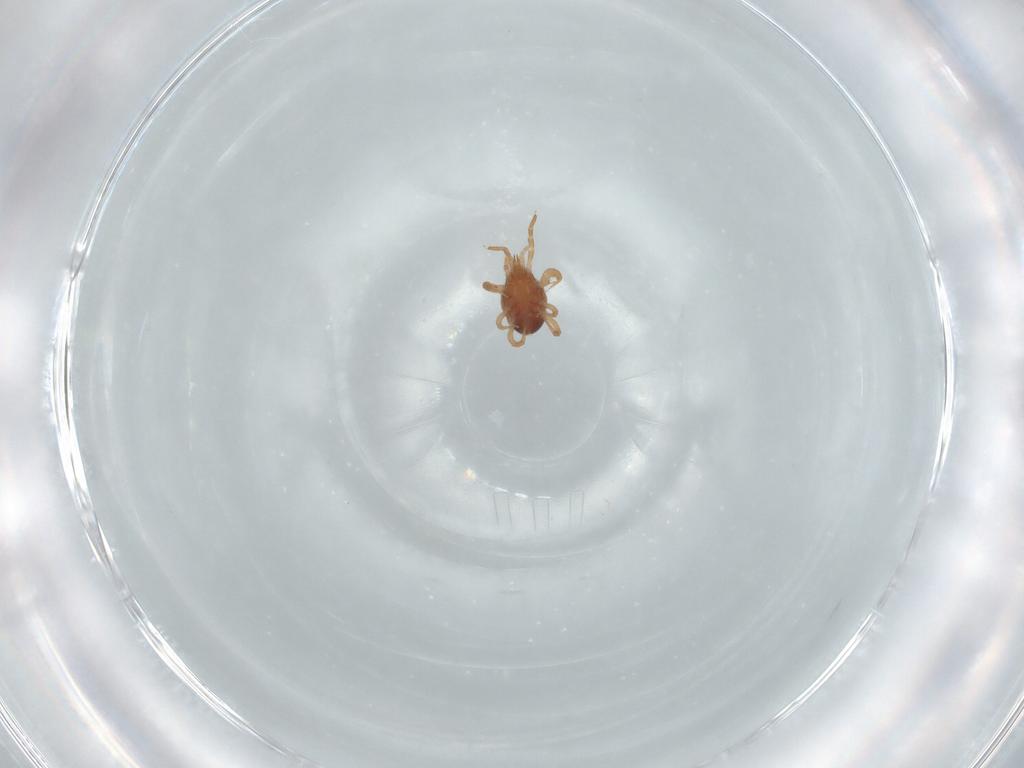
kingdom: Animalia
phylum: Arthropoda
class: Arachnida
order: Mesostigmata
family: Parasitidae
